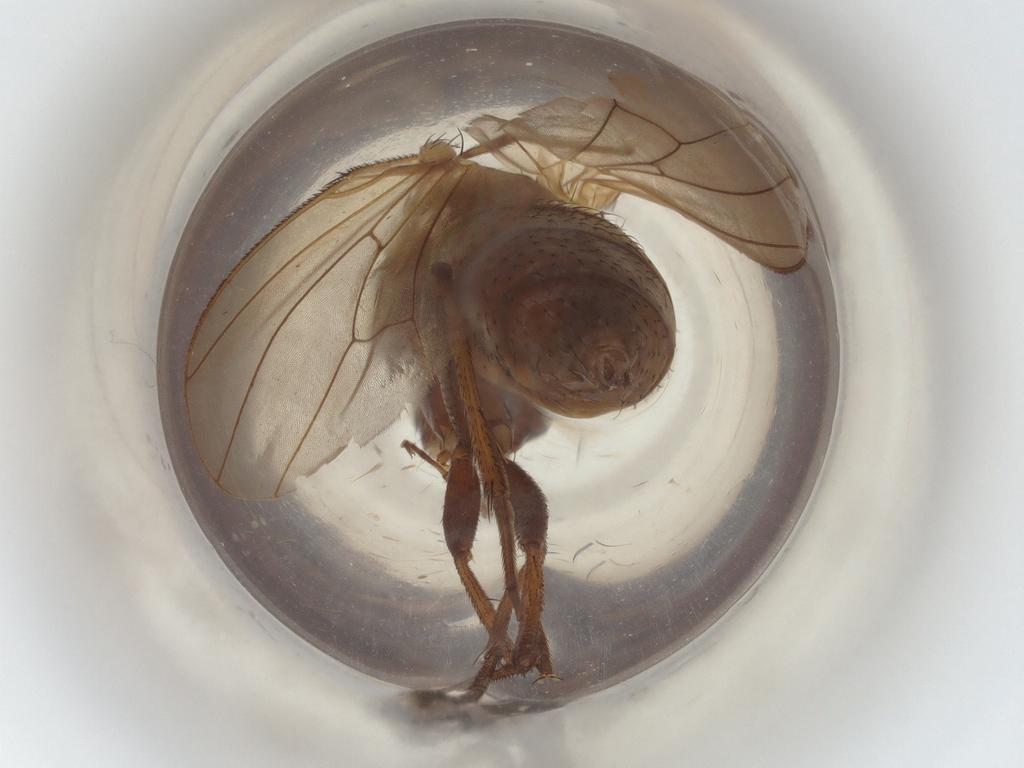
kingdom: Animalia
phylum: Arthropoda
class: Insecta
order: Diptera
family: Anthomyiidae
